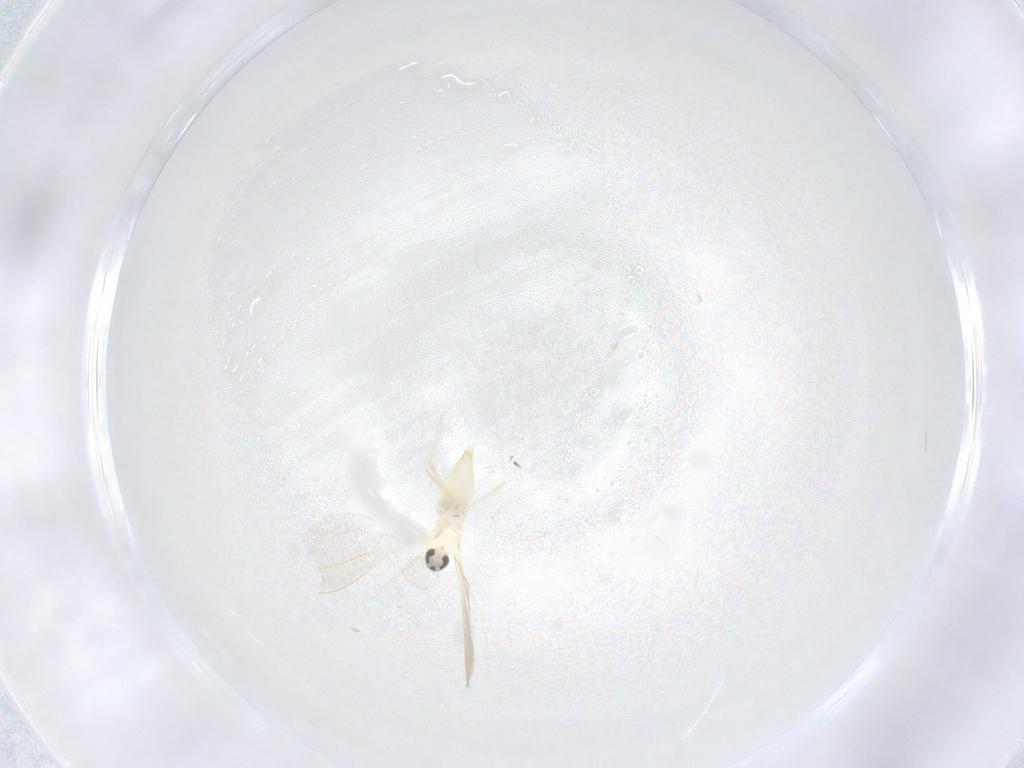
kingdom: Animalia
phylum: Arthropoda
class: Insecta
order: Diptera
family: Cecidomyiidae
